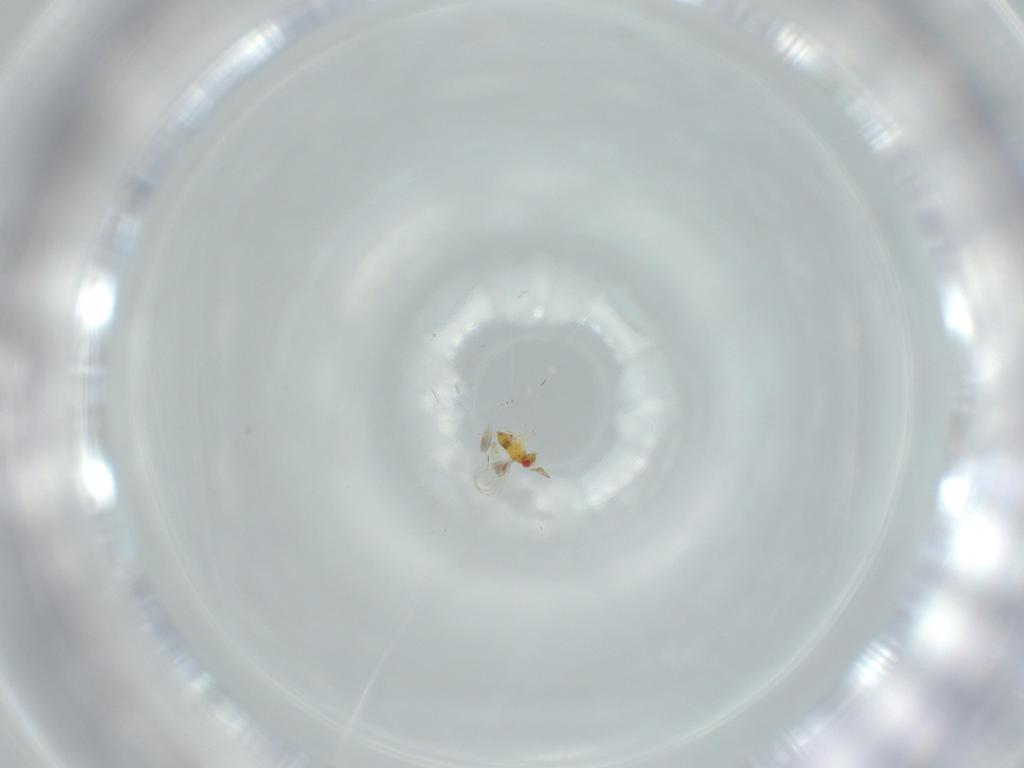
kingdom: Animalia
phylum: Arthropoda
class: Insecta
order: Hymenoptera
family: Trichogrammatidae
